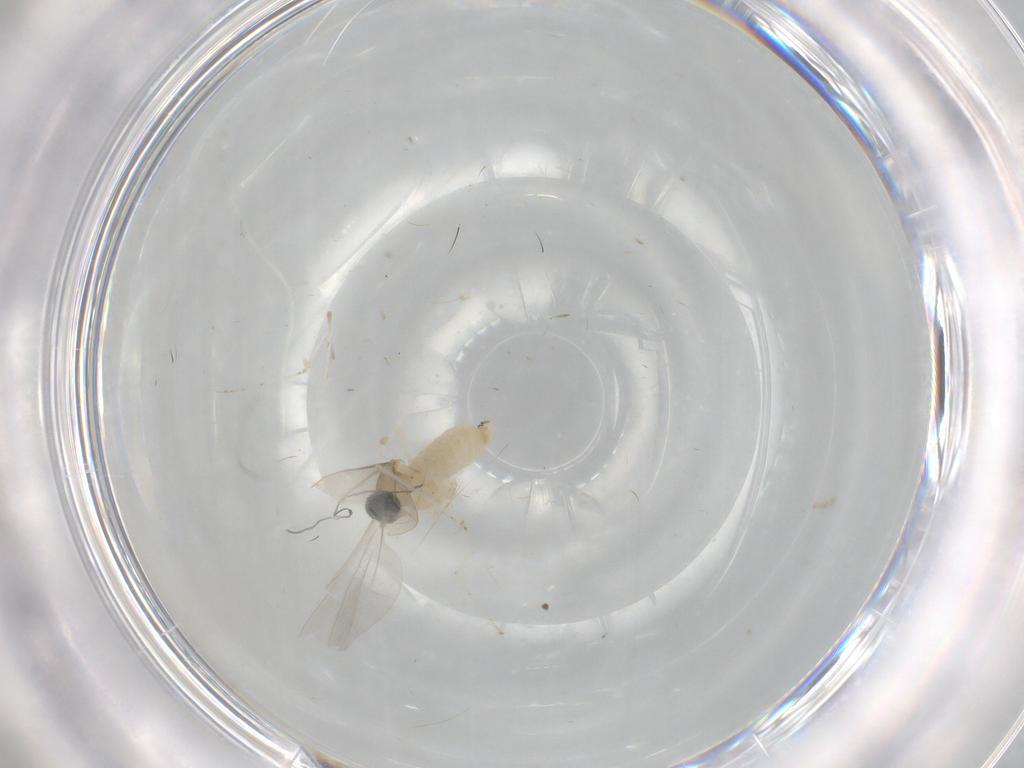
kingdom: Animalia
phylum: Arthropoda
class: Insecta
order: Diptera
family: Cecidomyiidae
